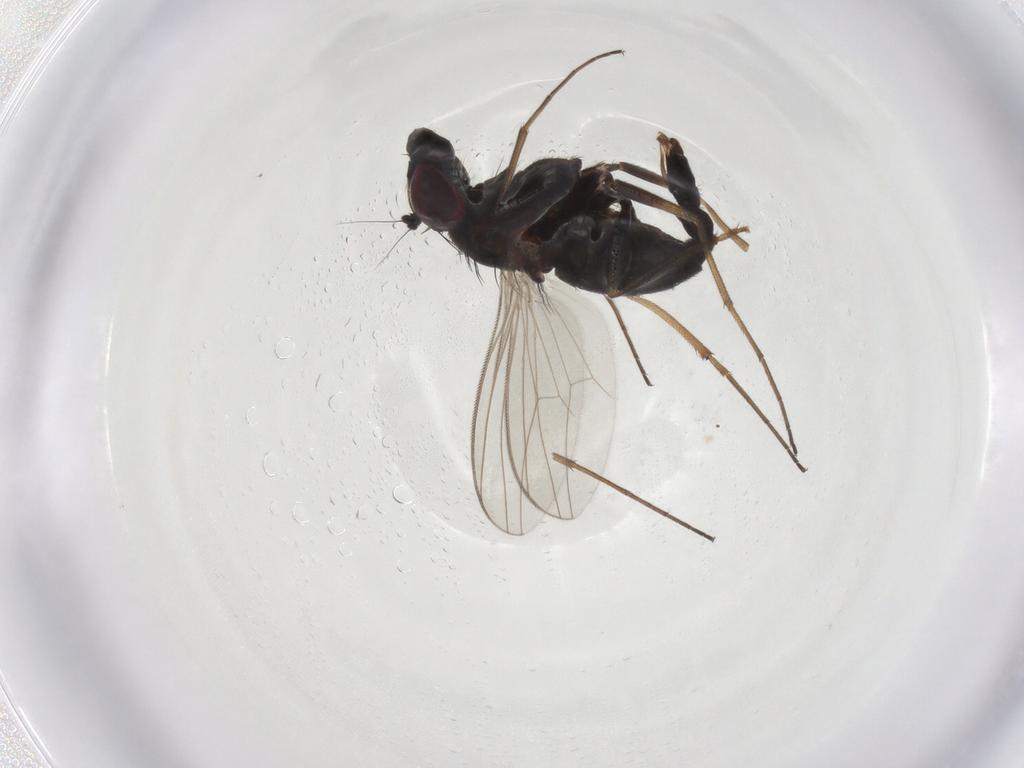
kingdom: Animalia
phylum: Arthropoda
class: Insecta
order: Diptera
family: Dolichopodidae
